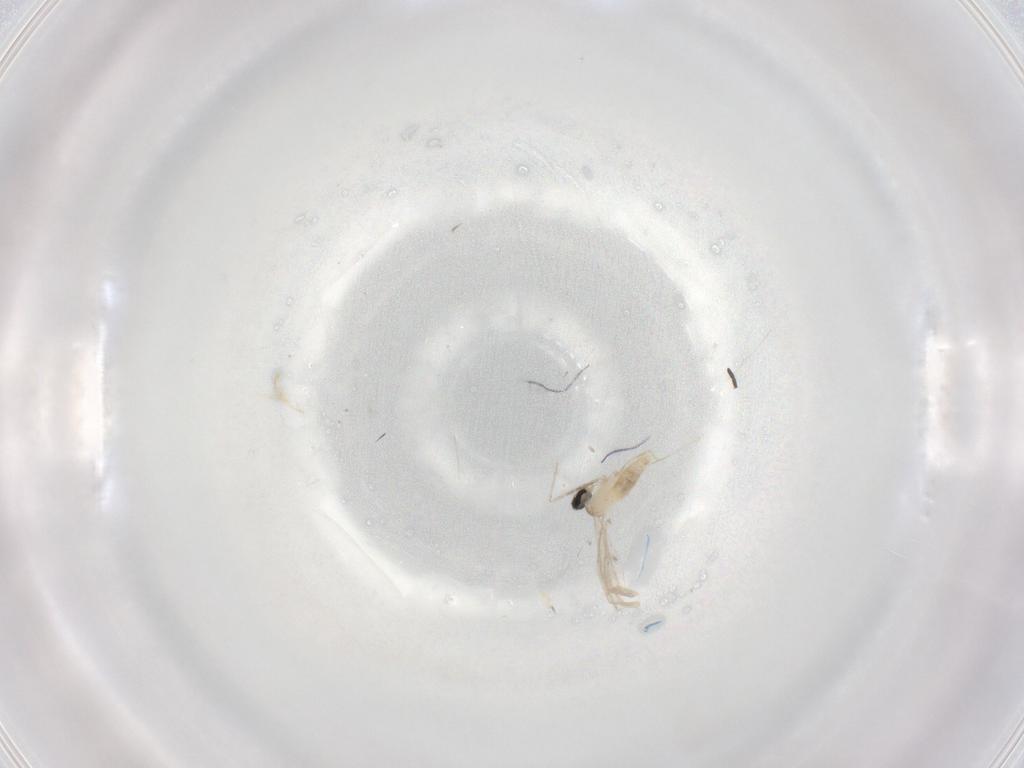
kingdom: Animalia
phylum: Arthropoda
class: Insecta
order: Diptera
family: Cecidomyiidae
